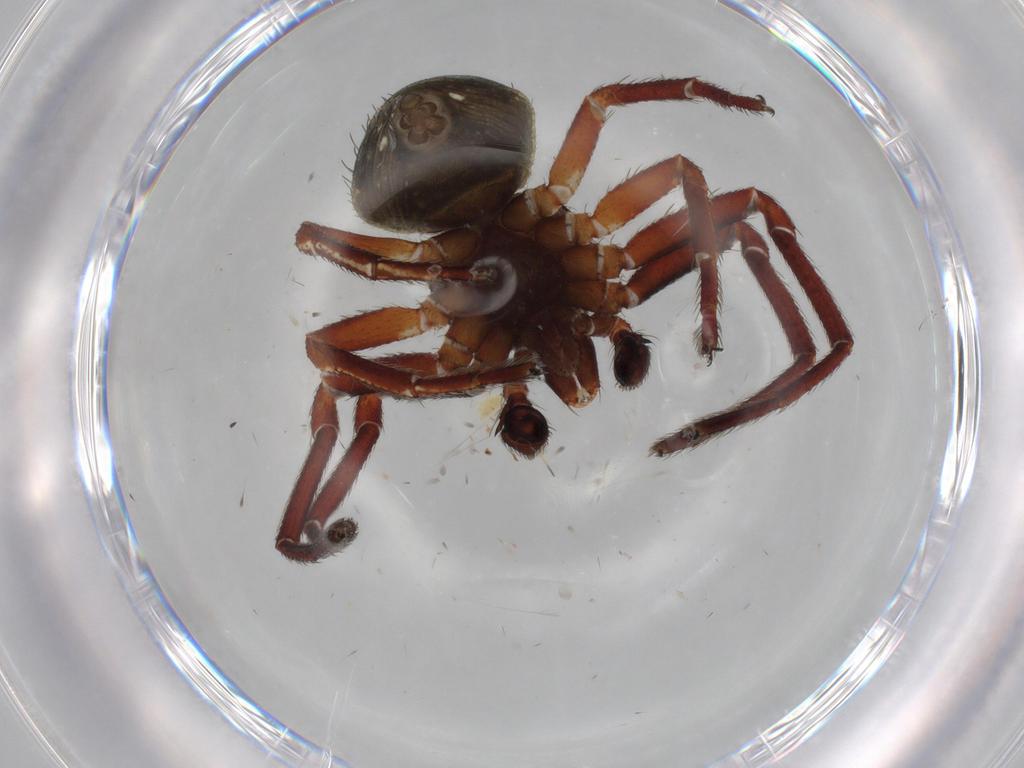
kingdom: Animalia
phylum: Arthropoda
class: Arachnida
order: Araneae
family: Thomisidae
